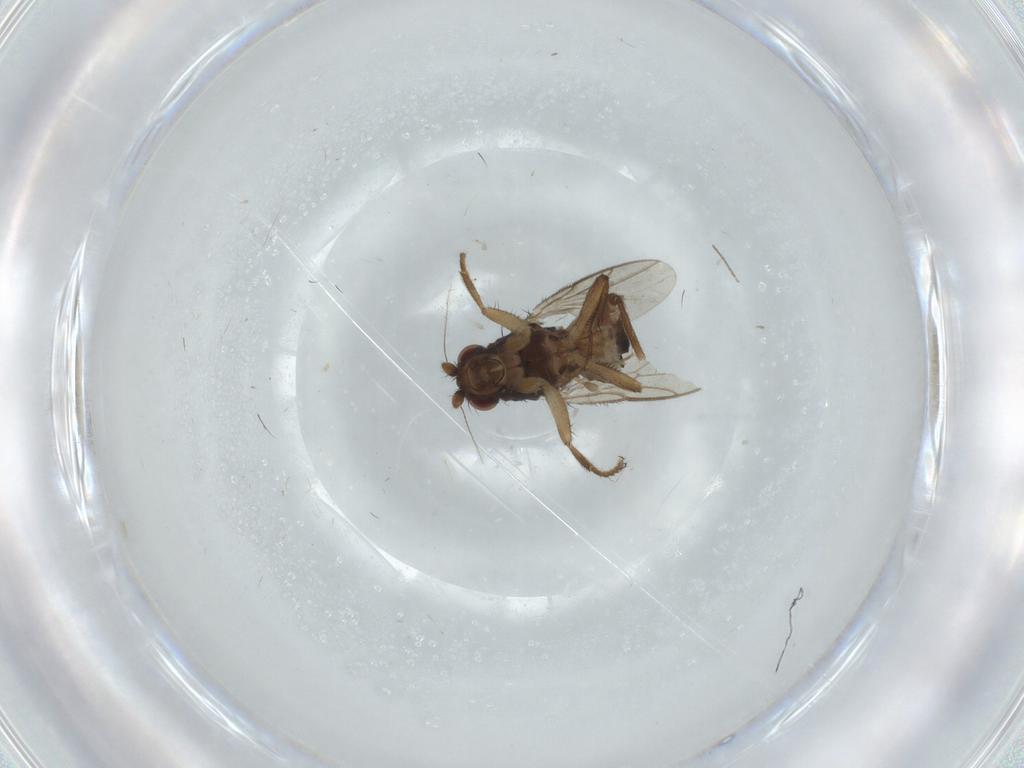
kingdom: Animalia
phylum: Arthropoda
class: Insecta
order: Diptera
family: Sphaeroceridae
